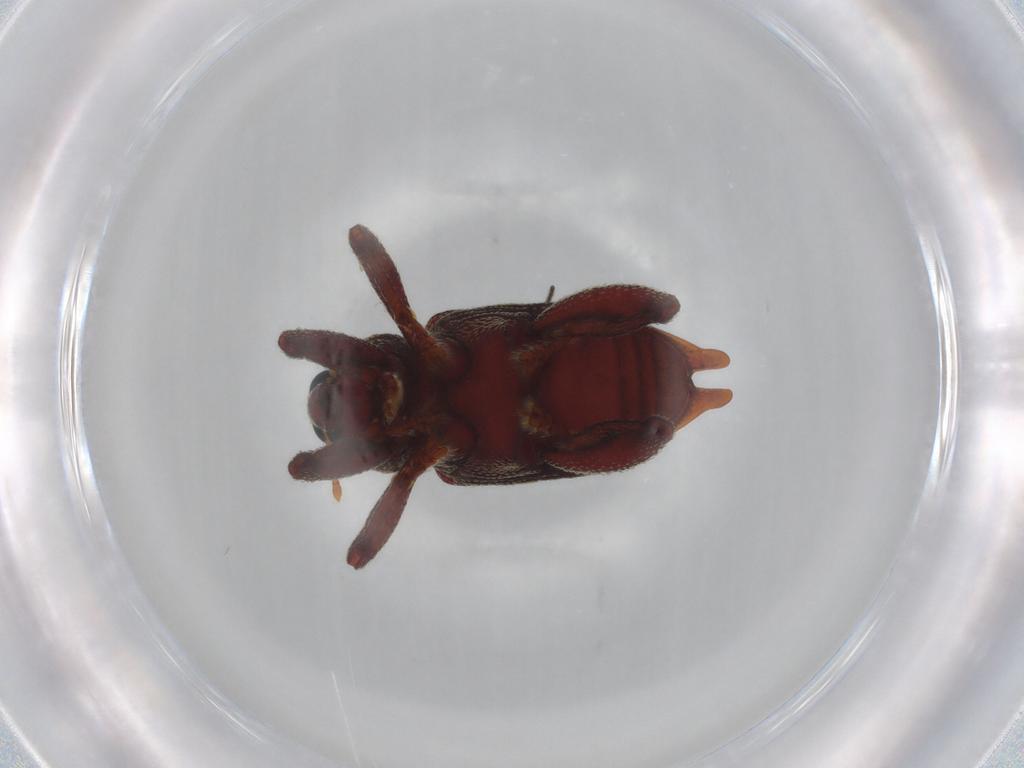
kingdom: Animalia
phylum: Arthropoda
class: Insecta
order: Coleoptera
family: Curculionidae
